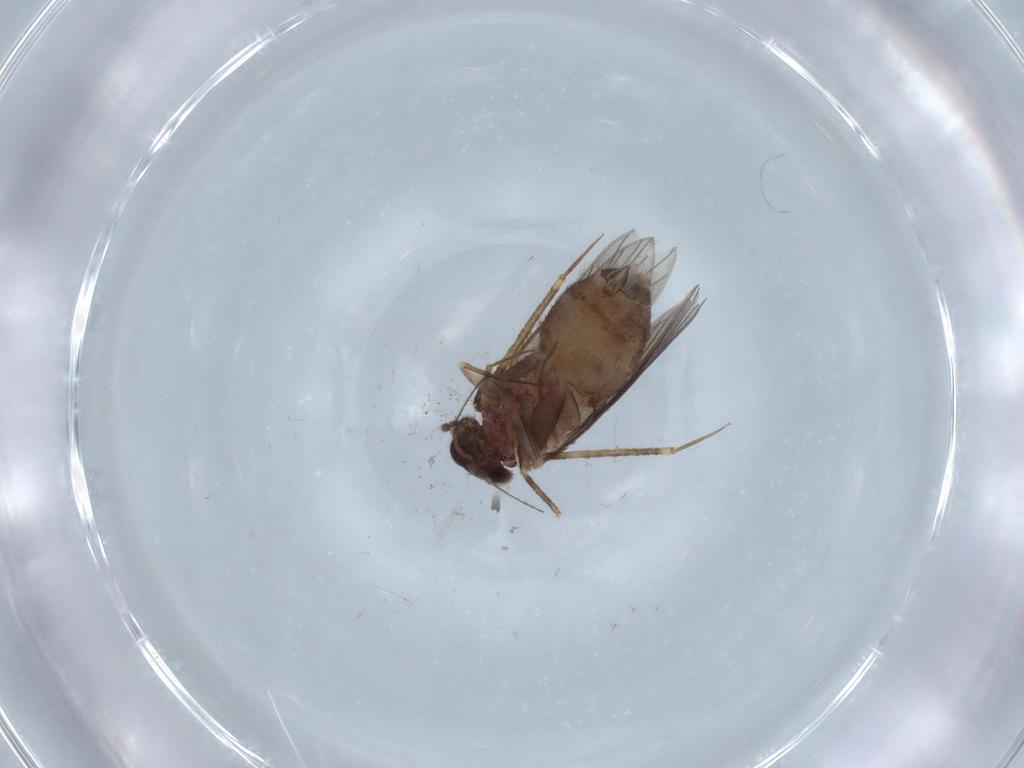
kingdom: Animalia
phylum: Arthropoda
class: Insecta
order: Psocodea
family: Lepidopsocidae
